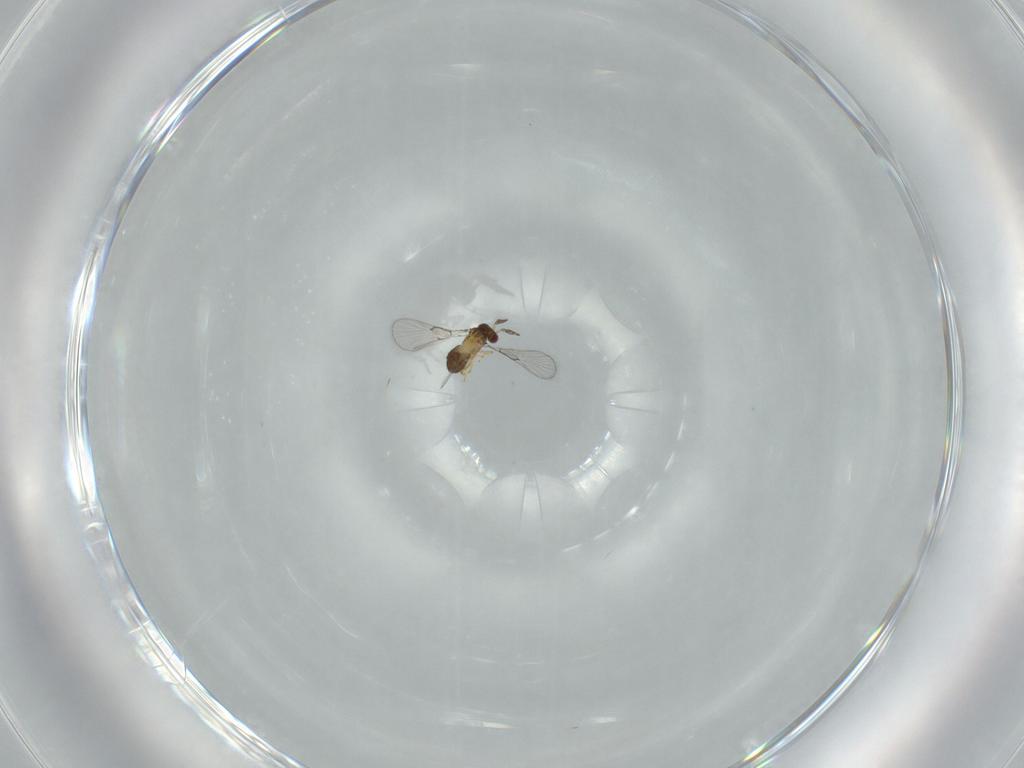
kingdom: Animalia
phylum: Arthropoda
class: Insecta
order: Hymenoptera
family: Trichogrammatidae
